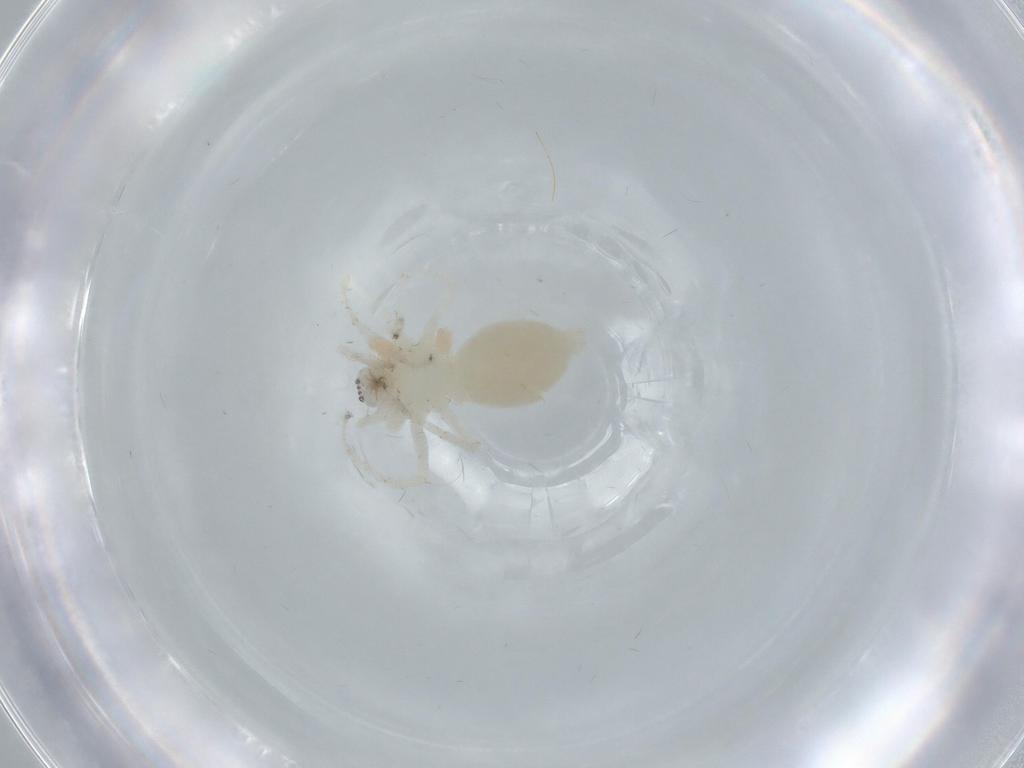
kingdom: Animalia
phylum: Arthropoda
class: Arachnida
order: Araneae
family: Anyphaenidae
